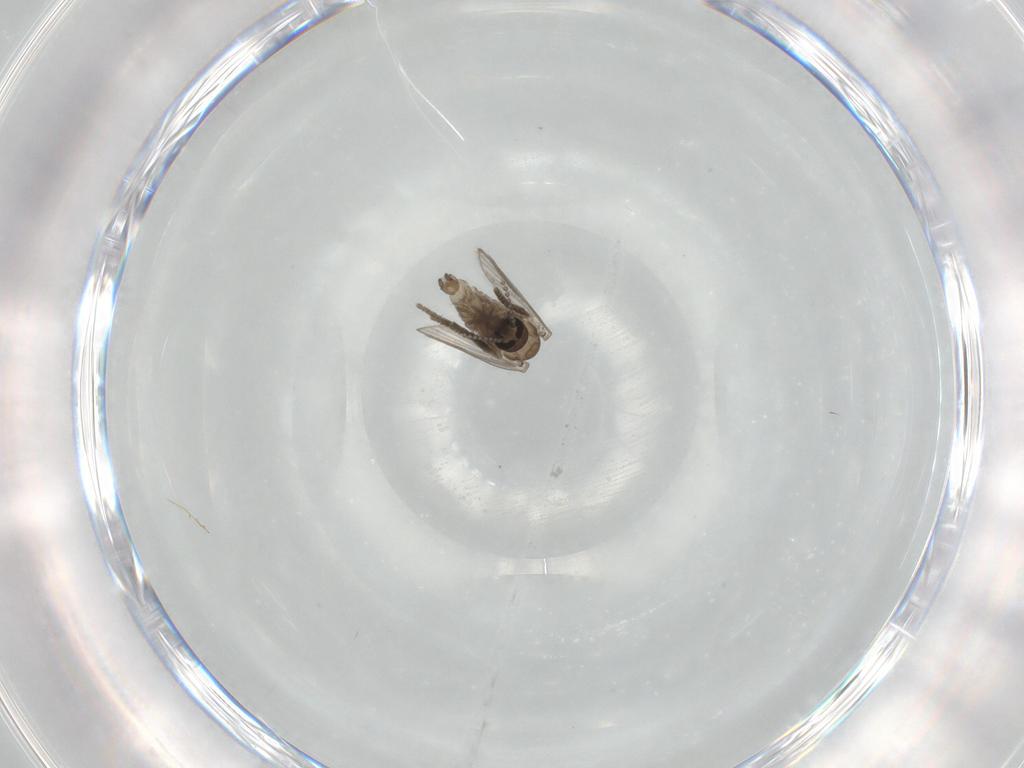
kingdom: Animalia
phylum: Arthropoda
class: Insecta
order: Diptera
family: Psychodidae
